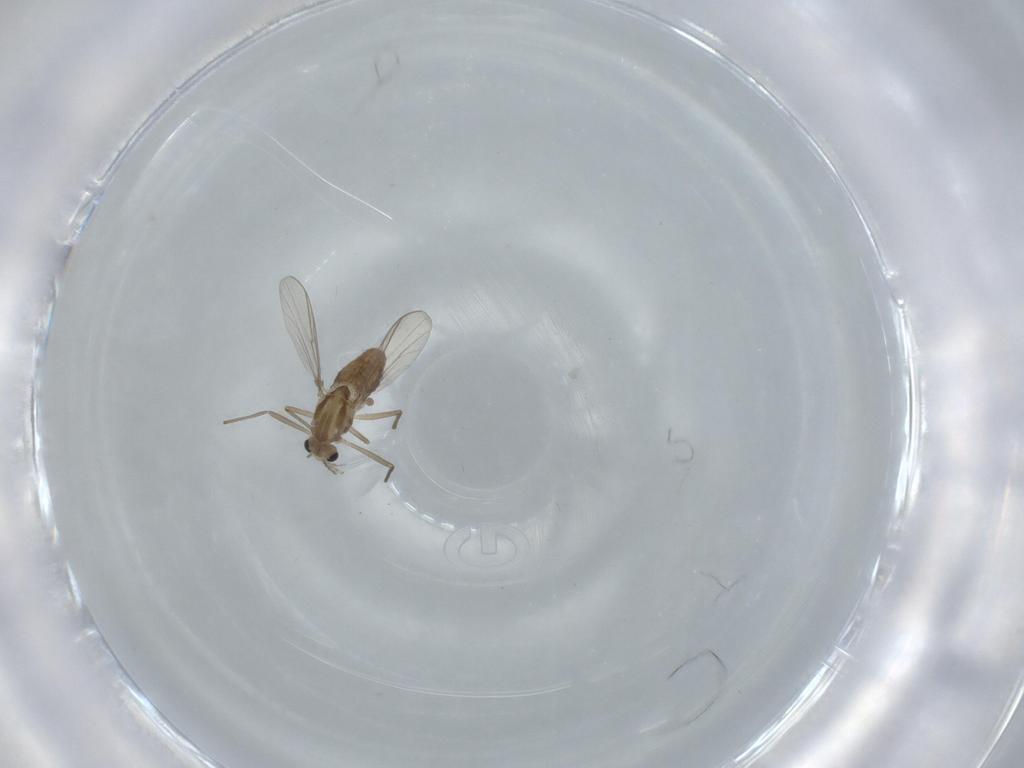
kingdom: Animalia
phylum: Arthropoda
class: Insecta
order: Diptera
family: Chironomidae
